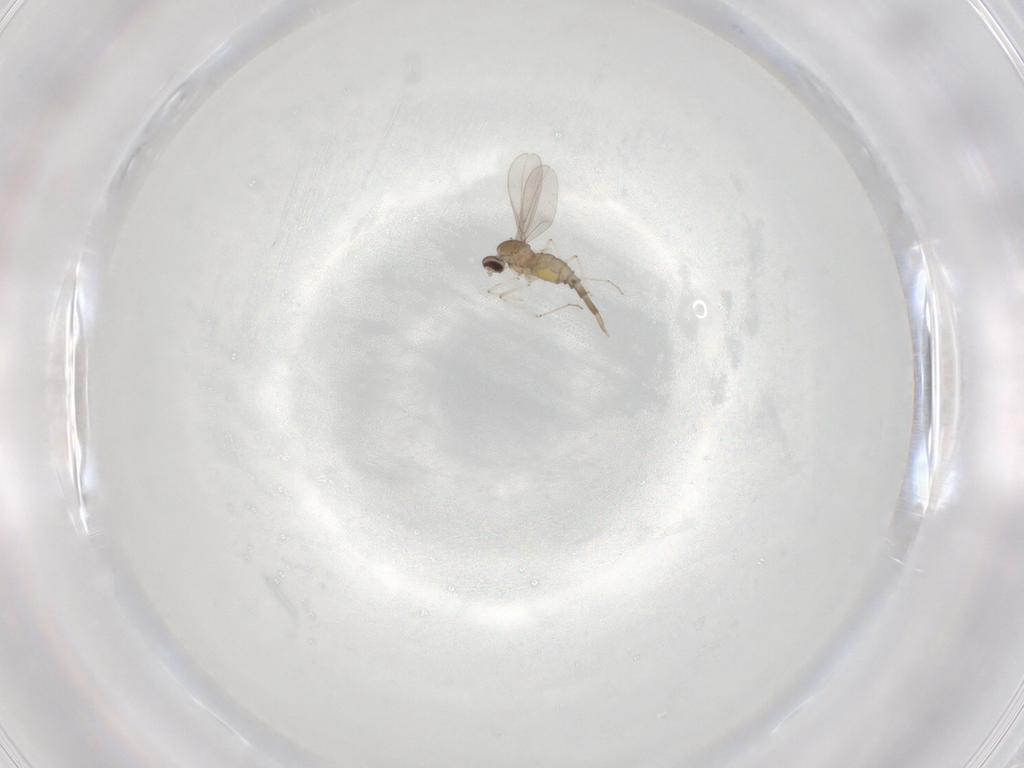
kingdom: Animalia
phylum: Arthropoda
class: Insecta
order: Diptera
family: Cecidomyiidae
